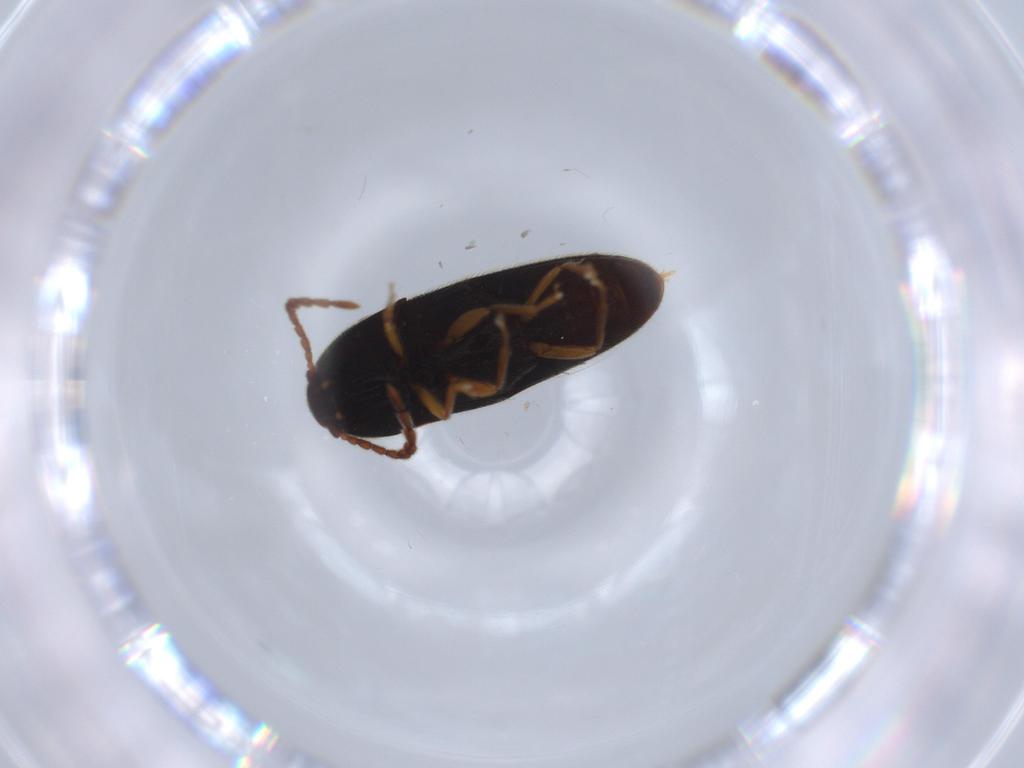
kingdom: Animalia
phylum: Arthropoda
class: Insecta
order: Coleoptera
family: Elateridae
